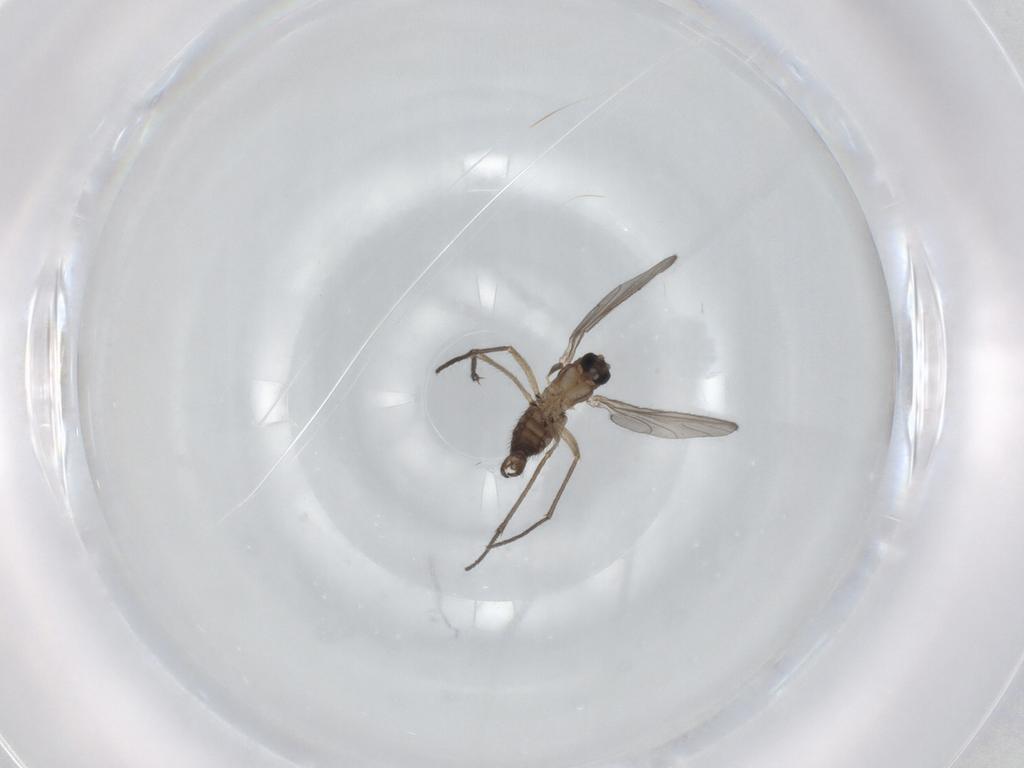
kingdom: Animalia
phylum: Arthropoda
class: Insecta
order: Diptera
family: Sciaridae
